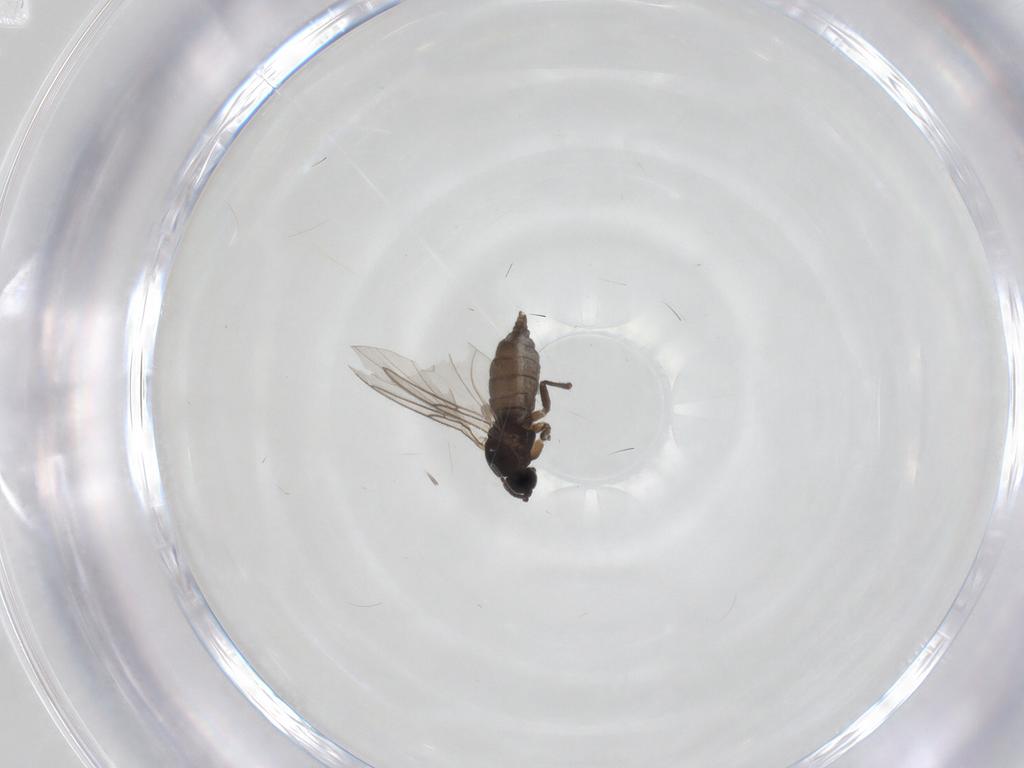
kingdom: Animalia
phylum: Arthropoda
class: Insecta
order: Diptera
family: Sciaridae
